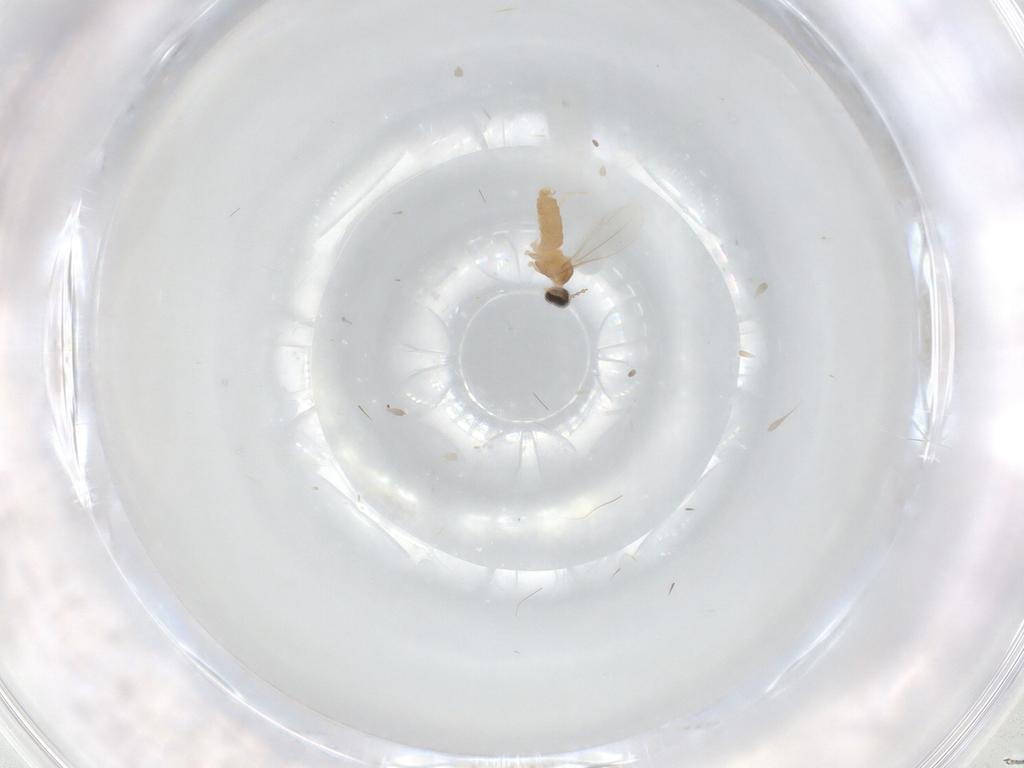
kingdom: Animalia
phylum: Arthropoda
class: Insecta
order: Diptera
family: Cecidomyiidae
